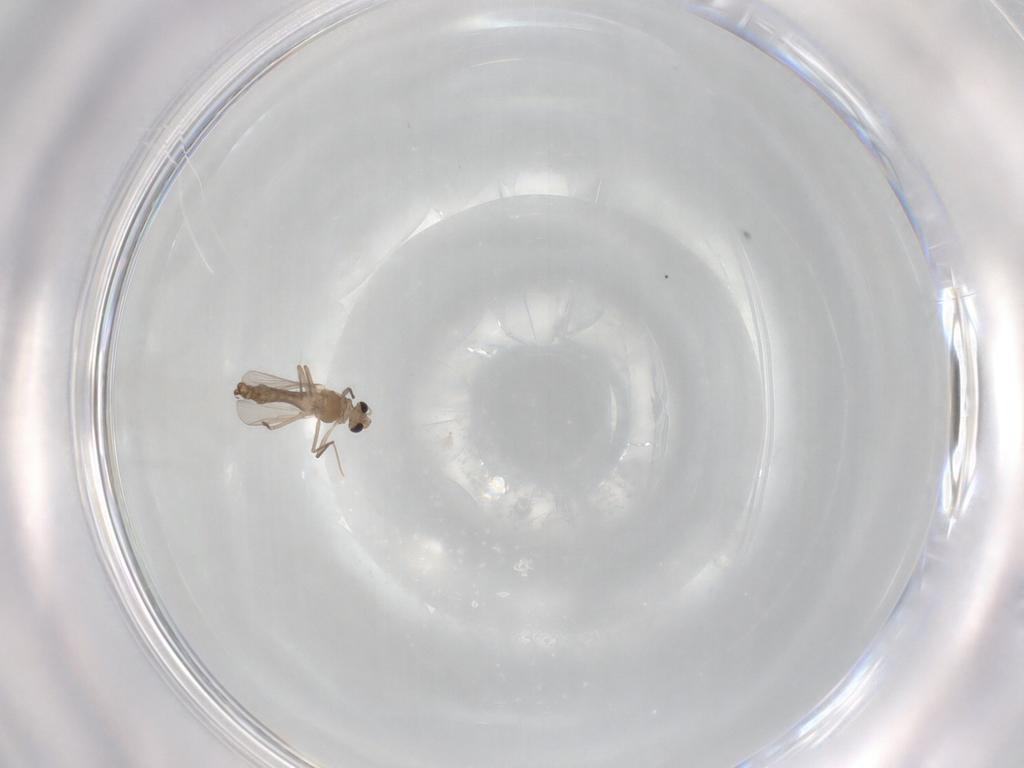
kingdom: Animalia
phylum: Arthropoda
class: Insecta
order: Diptera
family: Chironomidae
